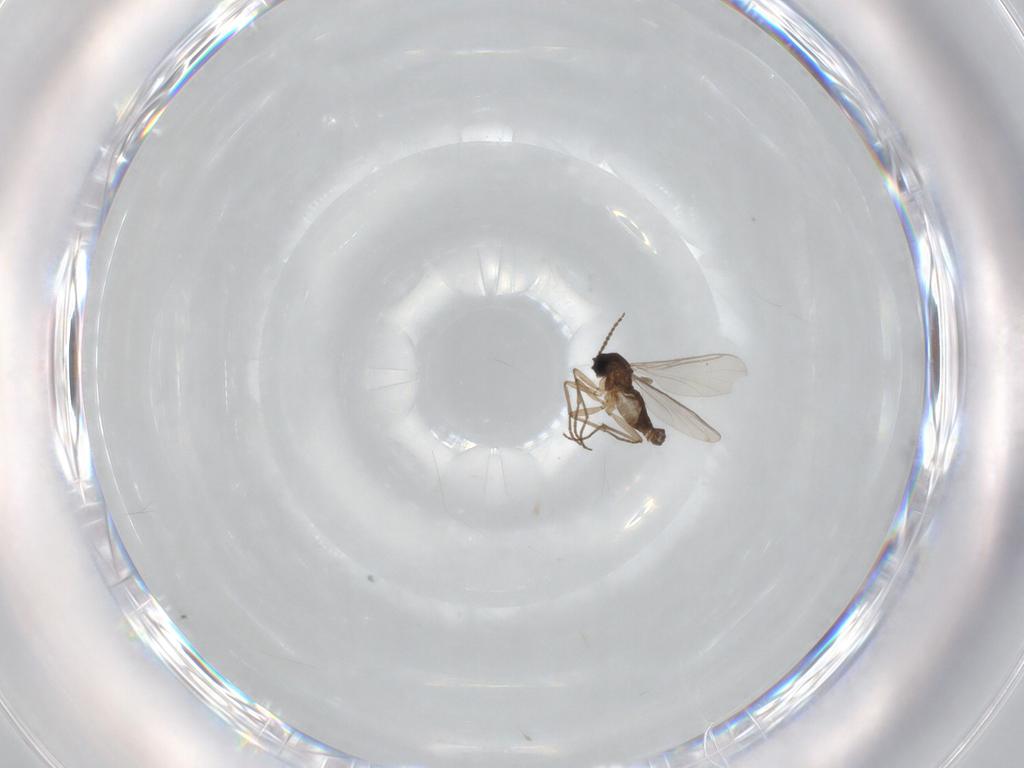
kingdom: Animalia
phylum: Arthropoda
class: Insecta
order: Diptera
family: Sciaridae
